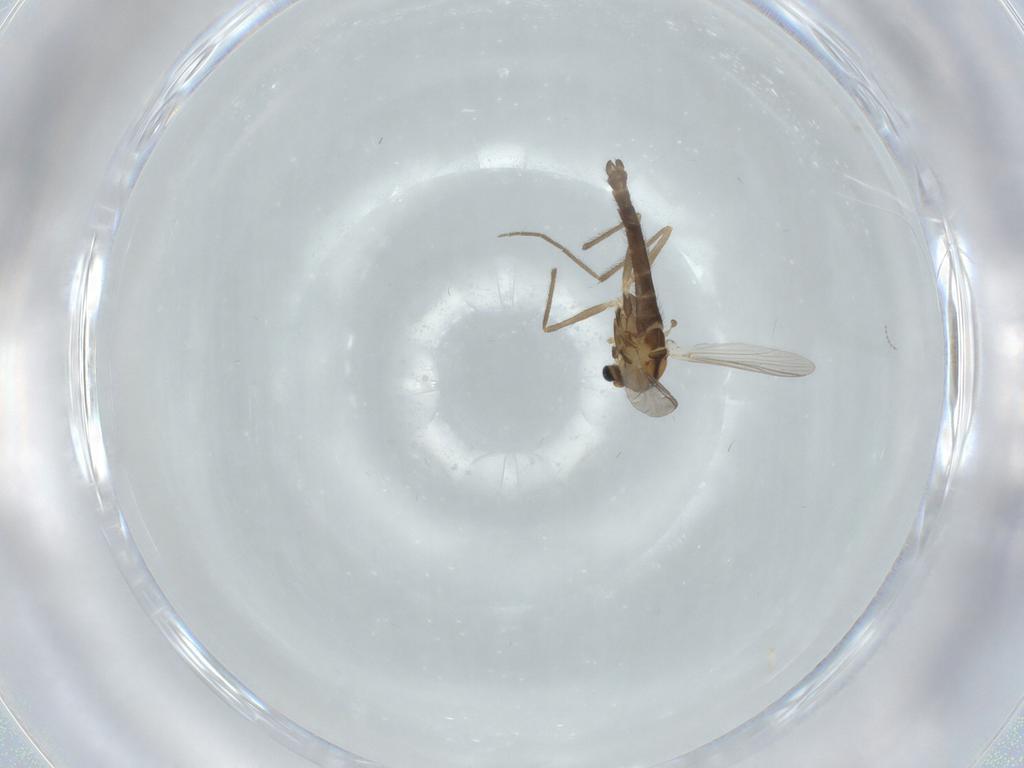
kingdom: Animalia
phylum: Arthropoda
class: Insecta
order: Diptera
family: Chironomidae
